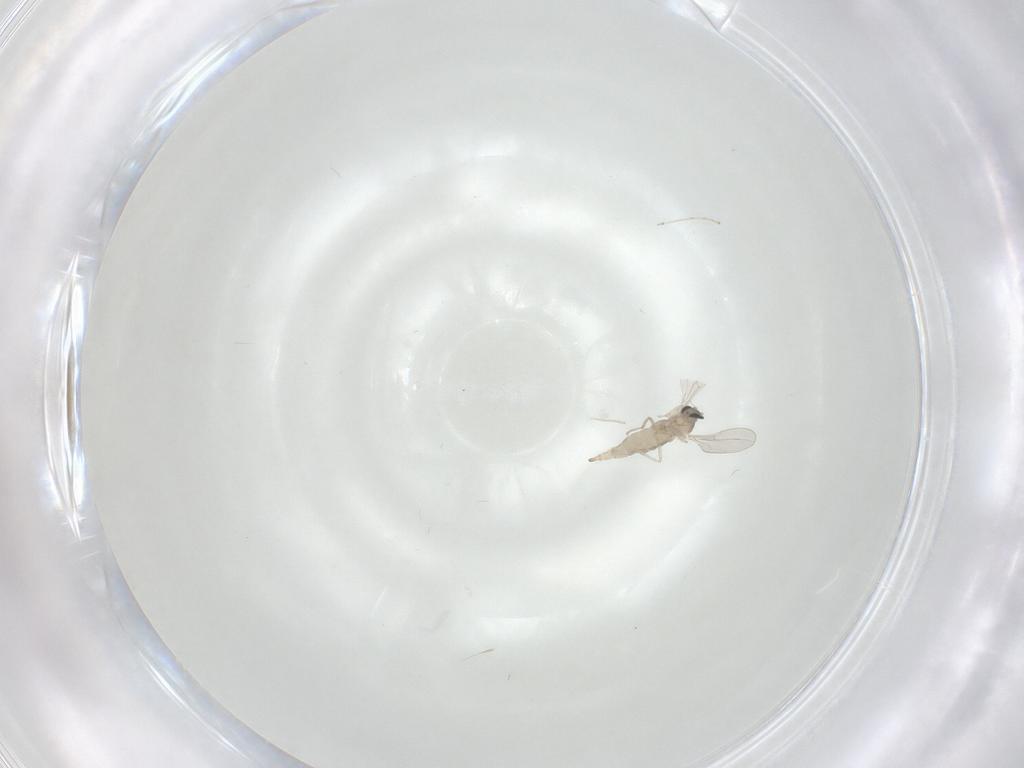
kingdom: Animalia
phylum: Arthropoda
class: Insecta
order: Diptera
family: Cecidomyiidae
